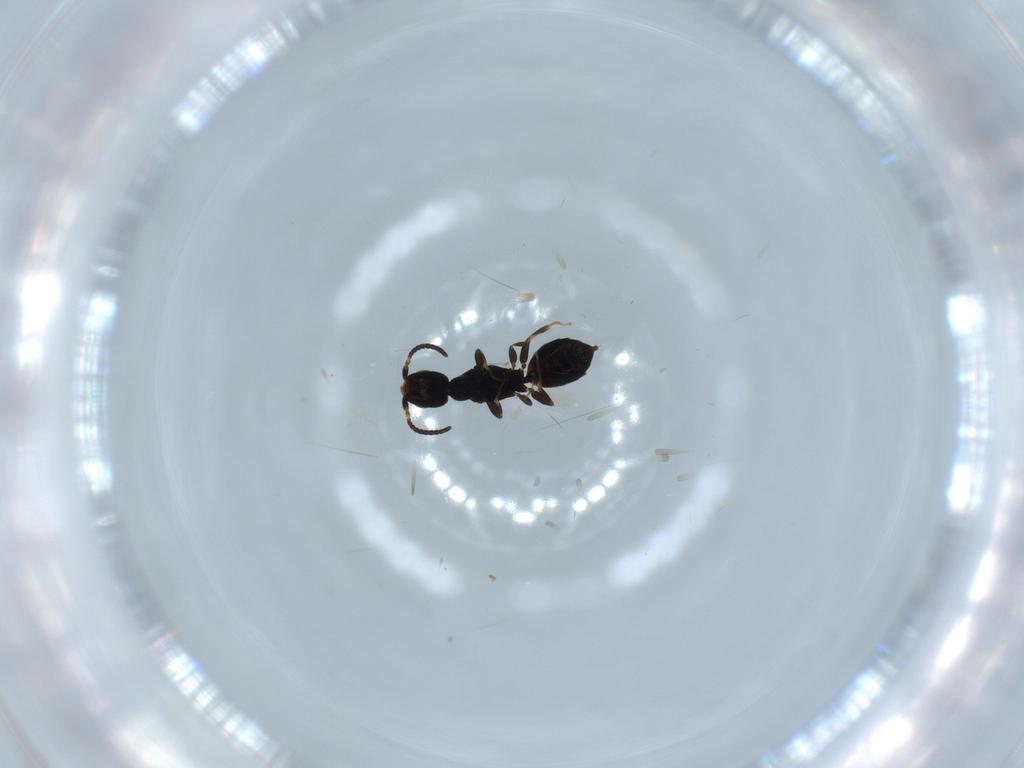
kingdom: Animalia
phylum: Arthropoda
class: Insecta
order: Hymenoptera
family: Bethylidae
